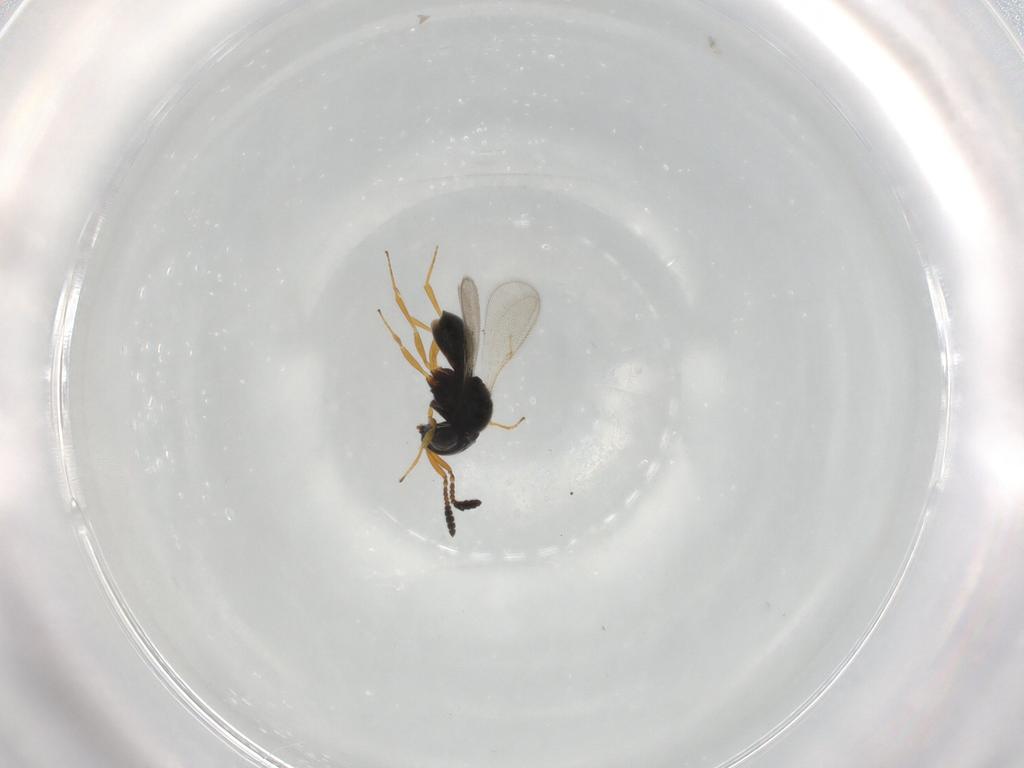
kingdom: Animalia
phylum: Arthropoda
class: Insecta
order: Hymenoptera
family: Scelionidae
